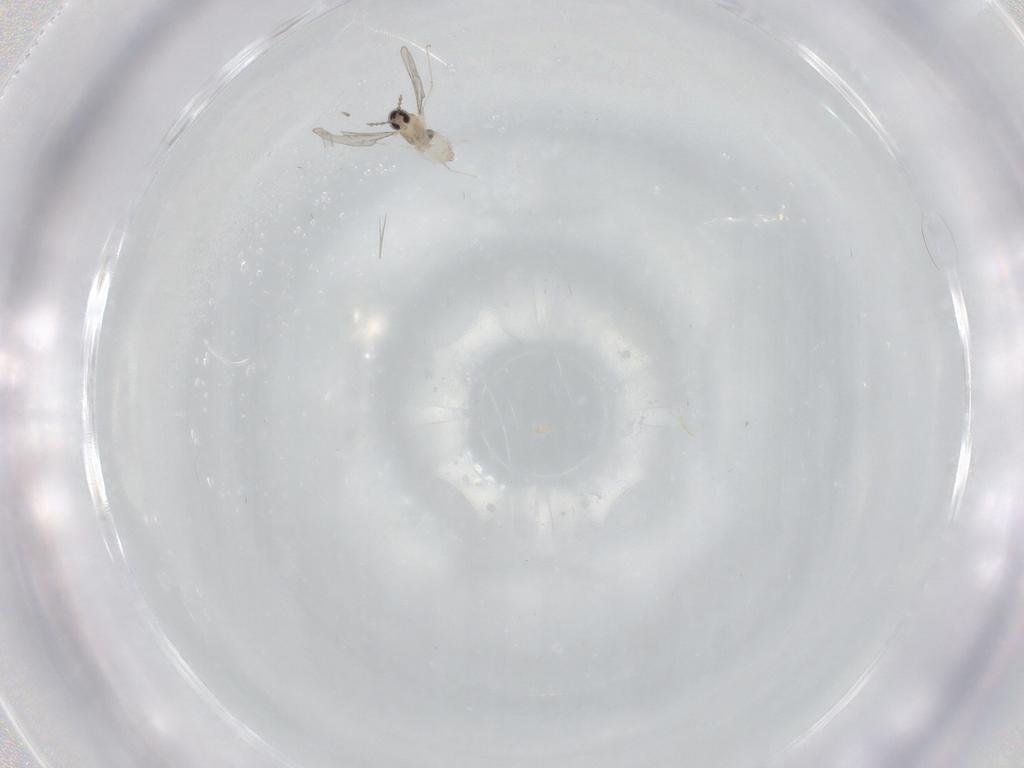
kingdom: Animalia
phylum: Arthropoda
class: Insecta
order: Diptera
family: Cecidomyiidae
